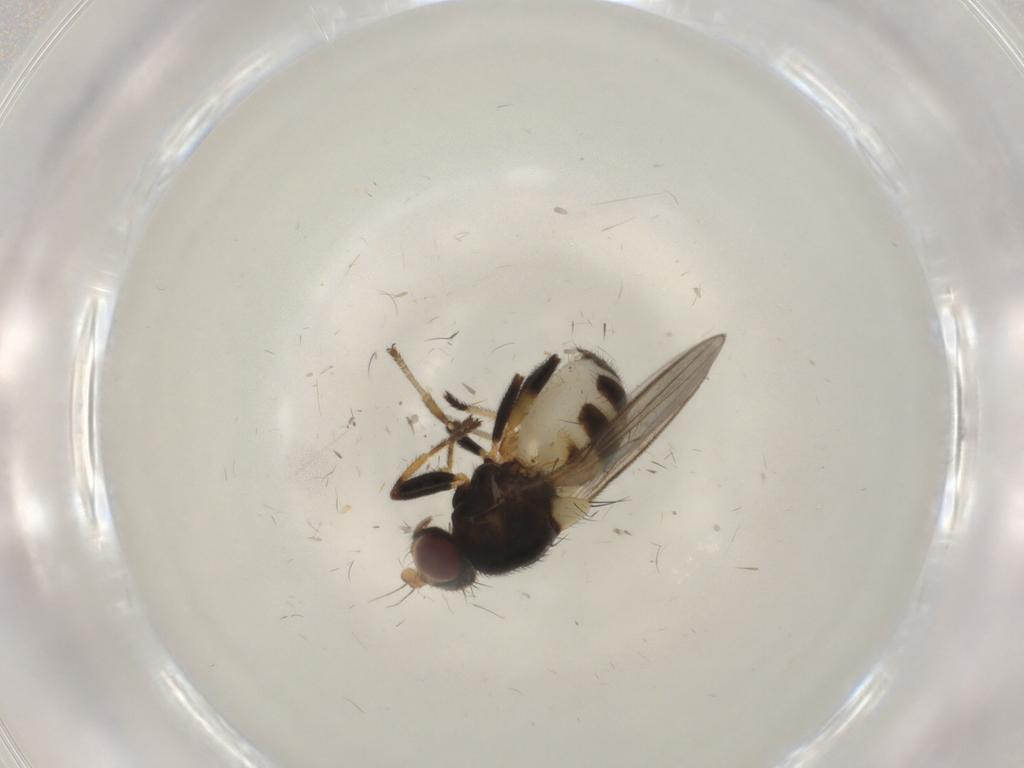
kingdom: Animalia
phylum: Arthropoda
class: Insecta
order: Diptera
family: Chloropidae
